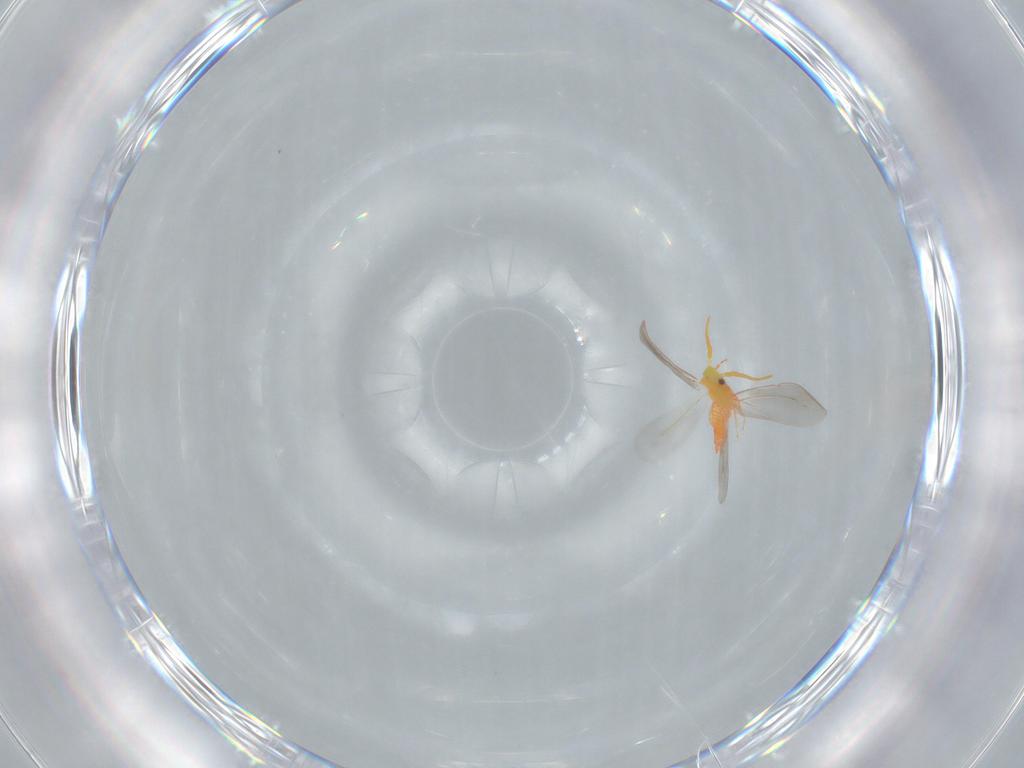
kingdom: Animalia
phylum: Arthropoda
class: Insecta
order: Hemiptera
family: Aleyrodidae
